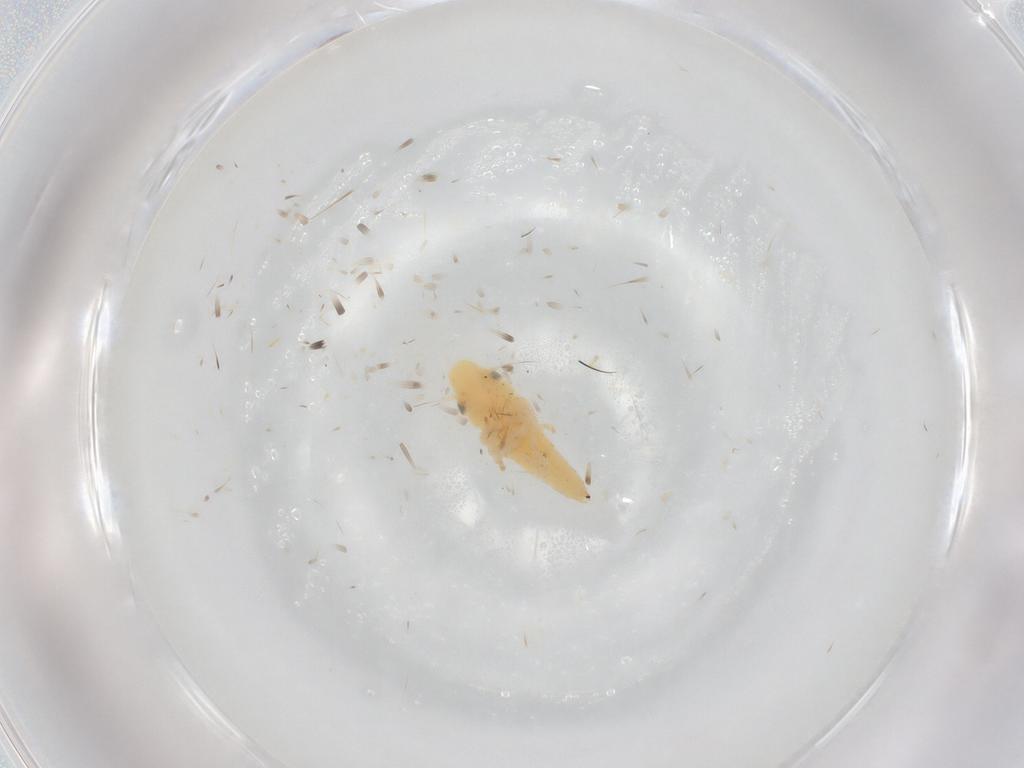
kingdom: Animalia
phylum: Arthropoda
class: Insecta
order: Hemiptera
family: Cicadellidae
